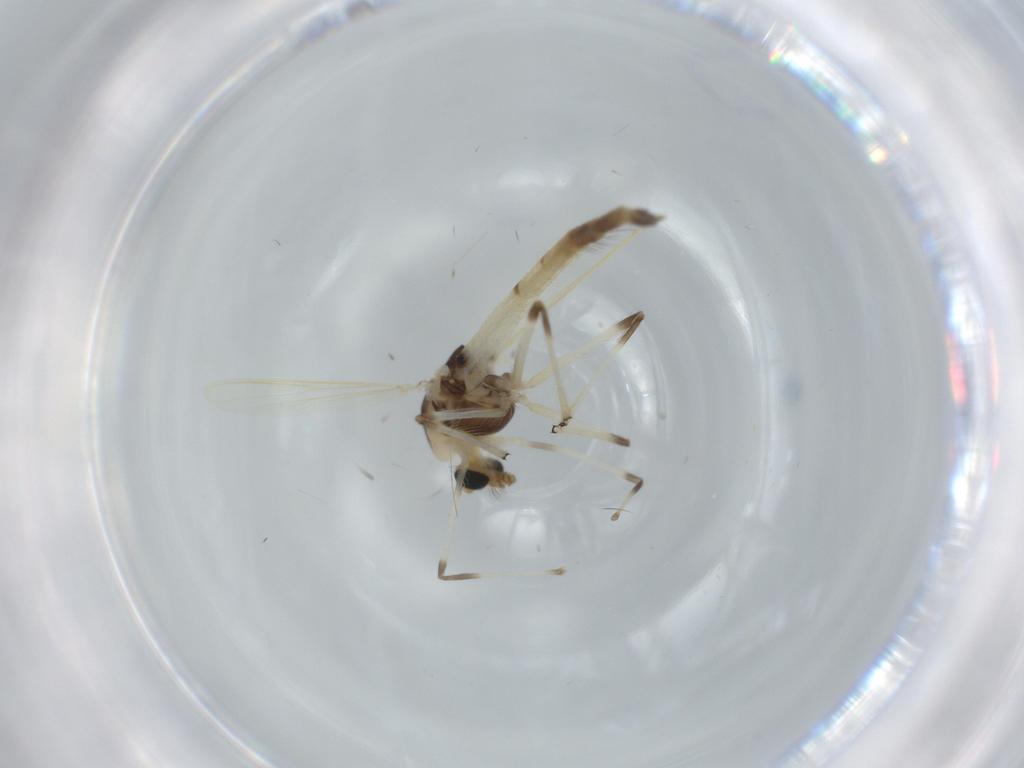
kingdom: Animalia
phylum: Arthropoda
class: Insecta
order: Diptera
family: Chironomidae
